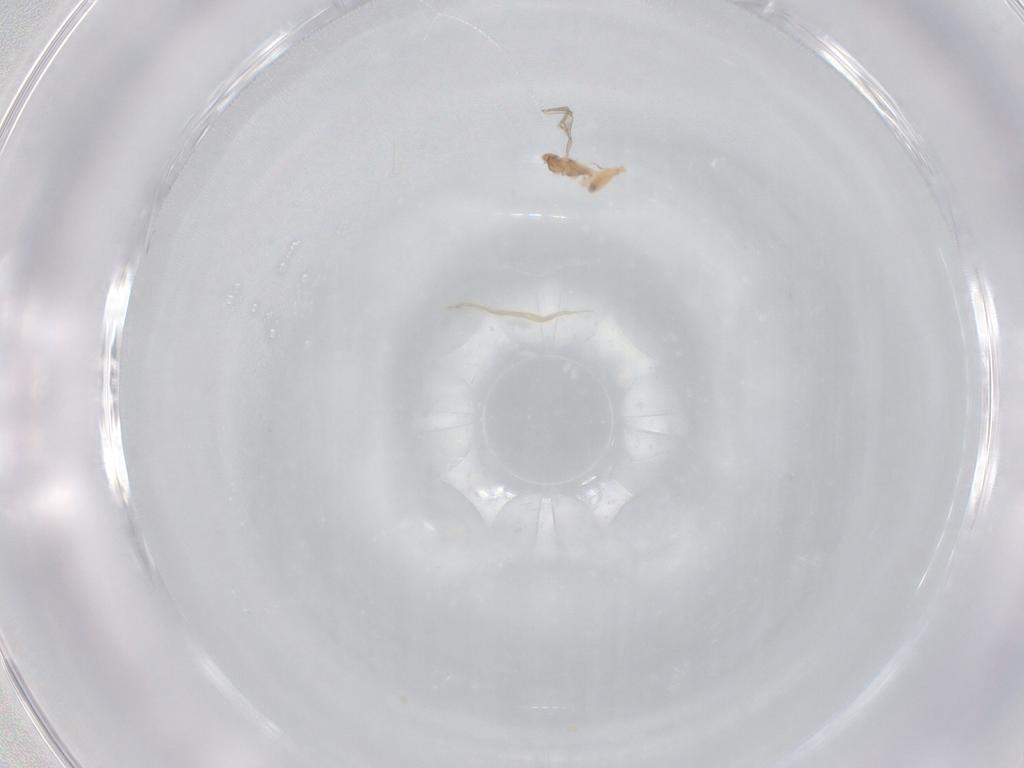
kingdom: Animalia
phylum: Arthropoda
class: Insecta
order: Diptera
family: Cecidomyiidae
